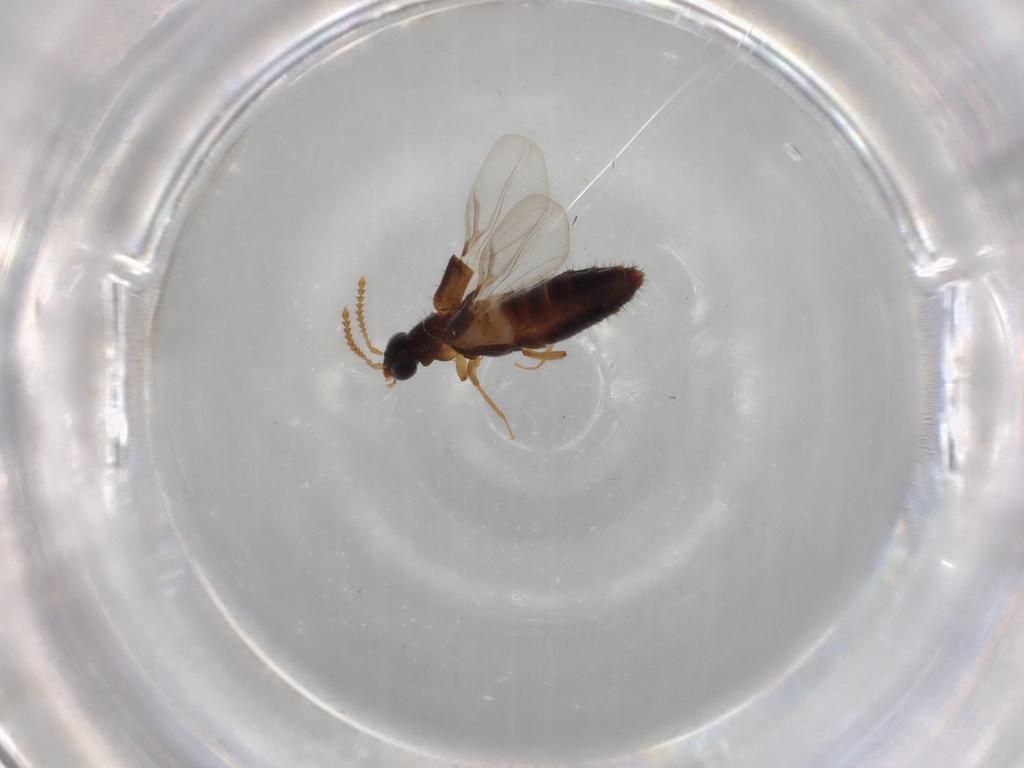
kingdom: Animalia
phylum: Arthropoda
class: Insecta
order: Coleoptera
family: Staphylinidae
